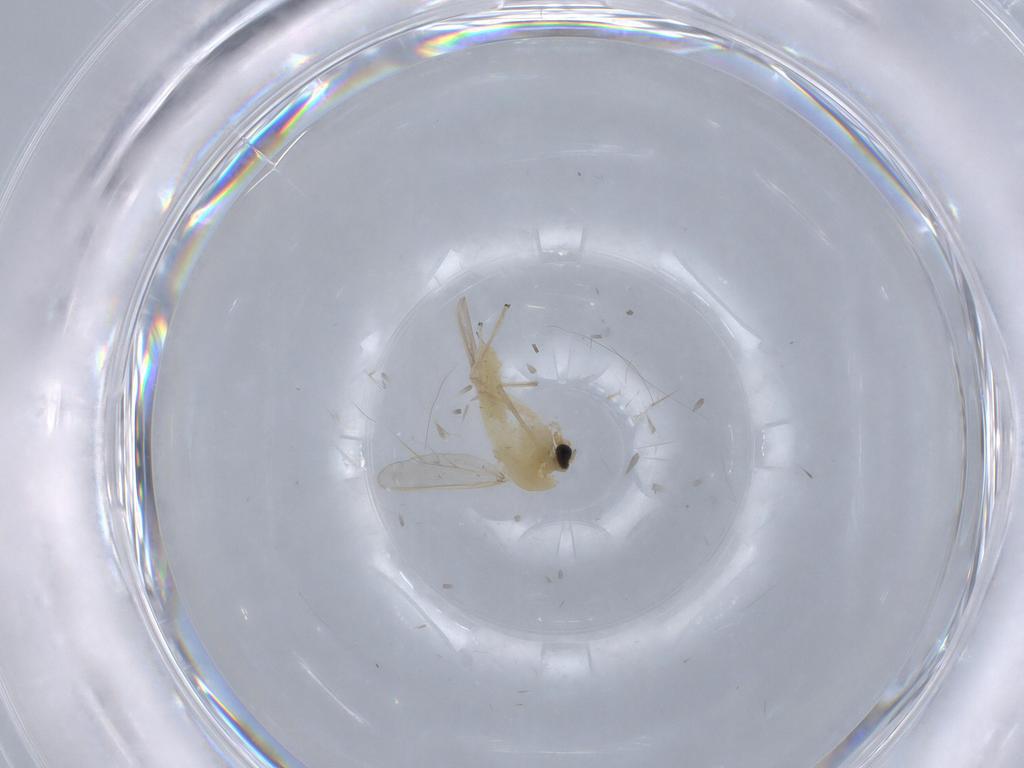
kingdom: Animalia
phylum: Arthropoda
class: Insecta
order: Diptera
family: Chironomidae
